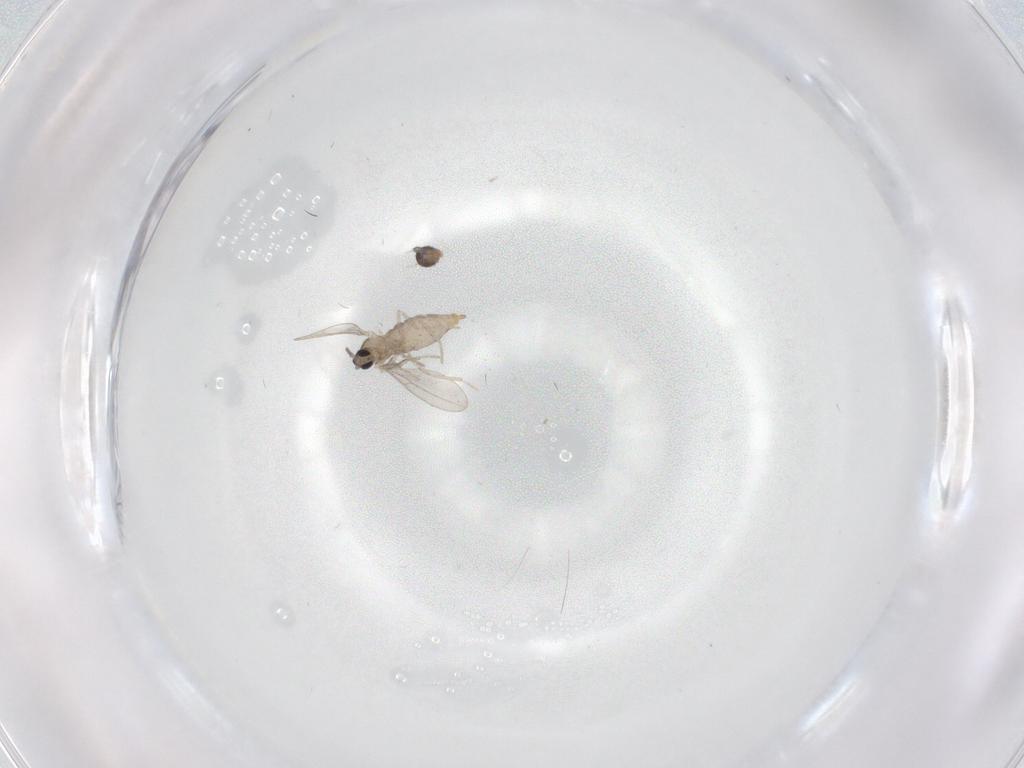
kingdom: Animalia
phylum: Arthropoda
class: Insecta
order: Diptera
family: Cecidomyiidae
